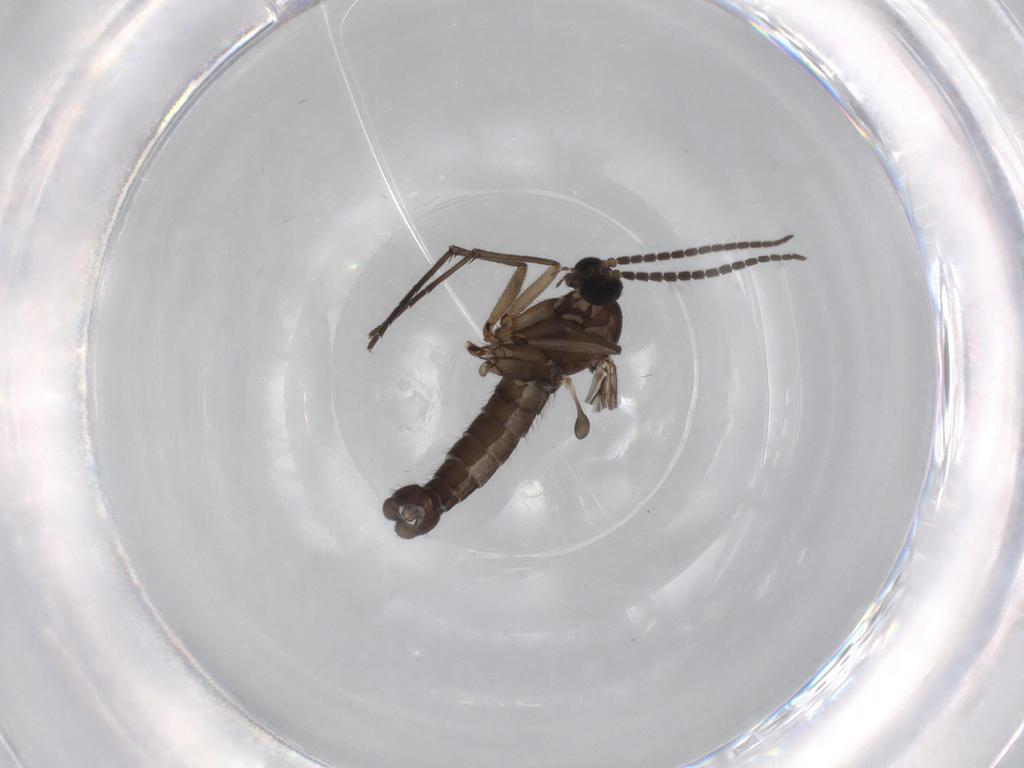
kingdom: Animalia
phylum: Arthropoda
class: Insecta
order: Diptera
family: Sciaridae
